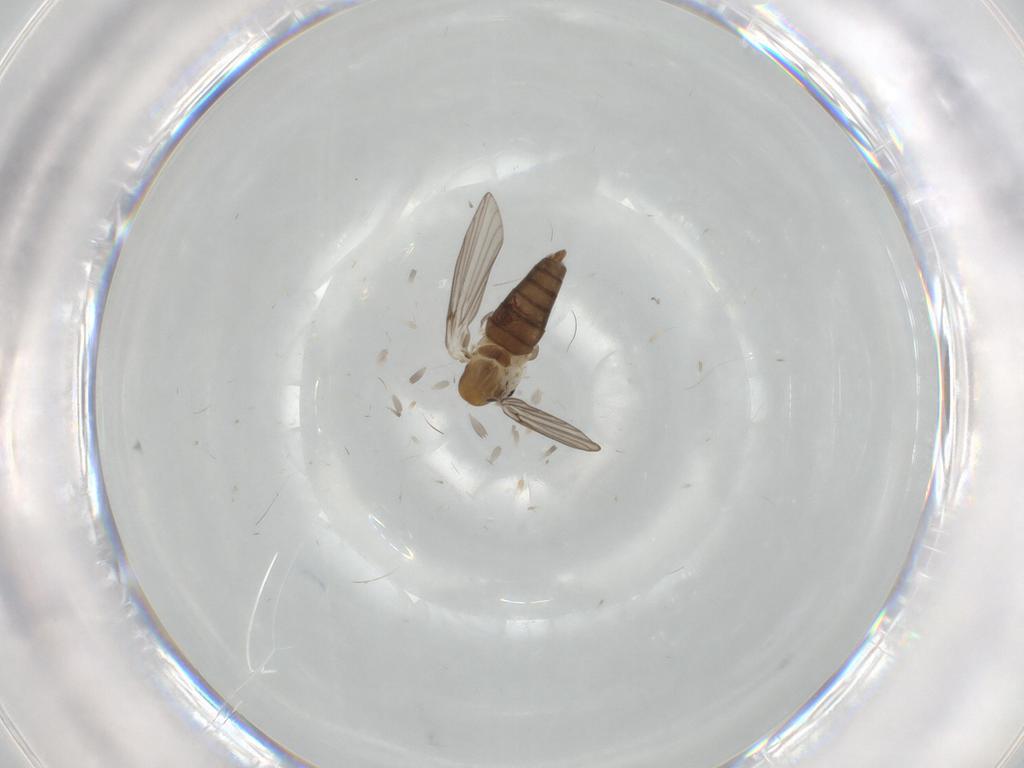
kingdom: Animalia
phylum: Arthropoda
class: Insecta
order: Diptera
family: Psychodidae
